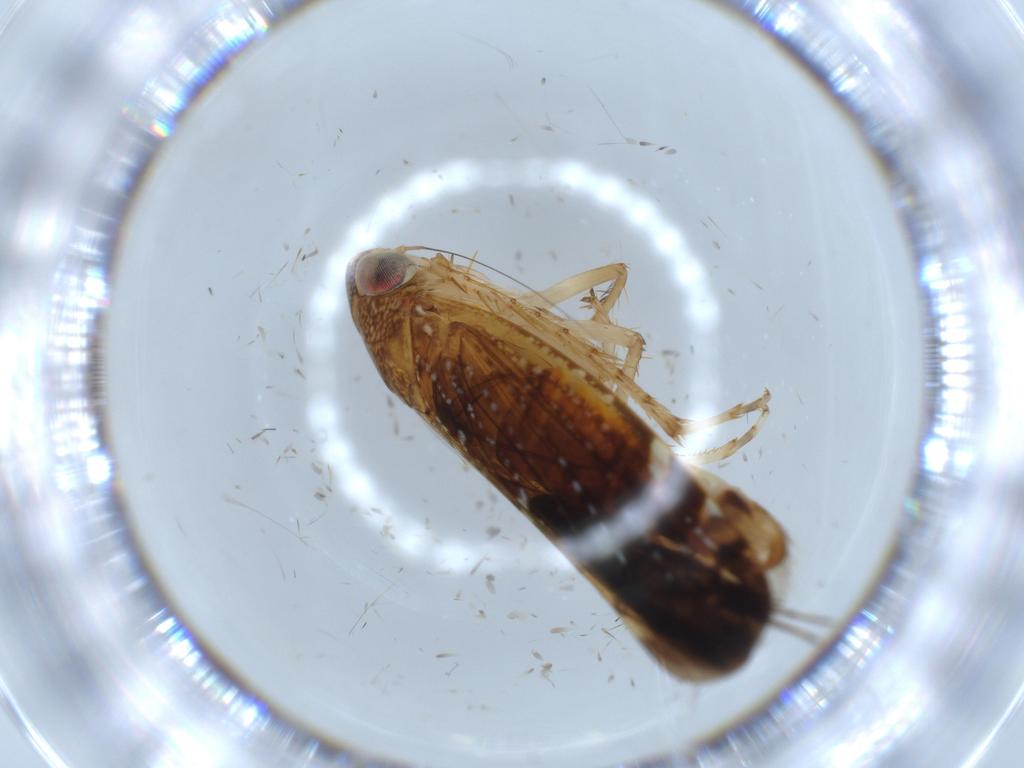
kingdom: Animalia
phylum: Arthropoda
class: Insecta
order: Hemiptera
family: Cicadellidae
